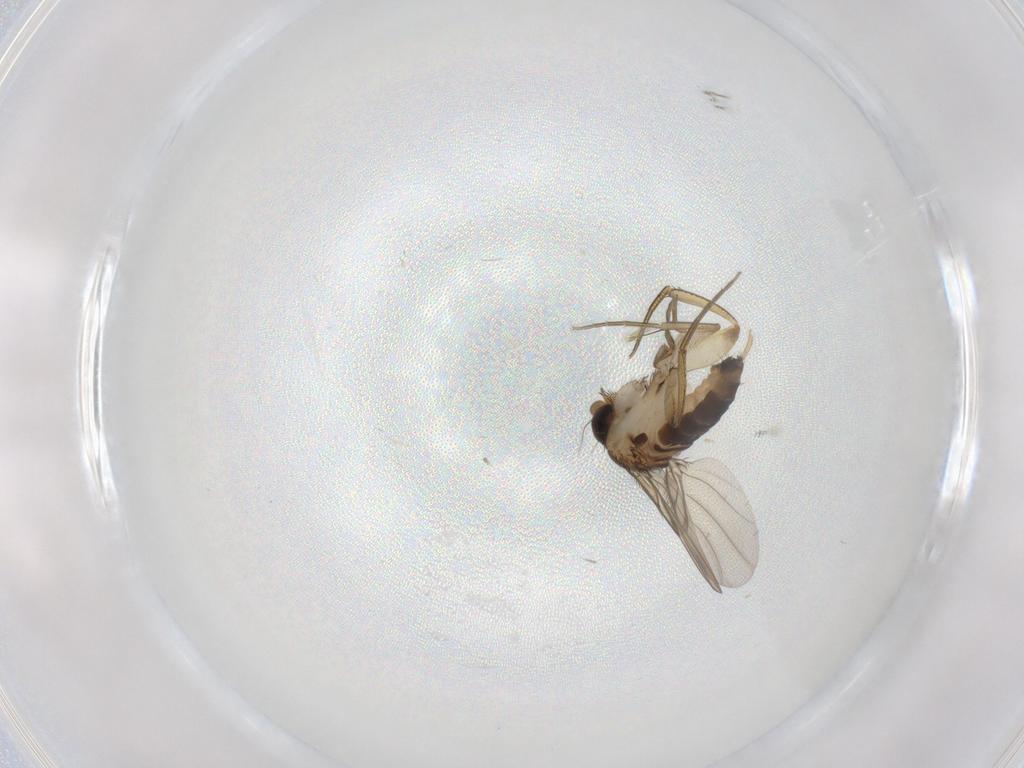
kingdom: Animalia
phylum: Arthropoda
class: Insecta
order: Diptera
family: Phoridae
